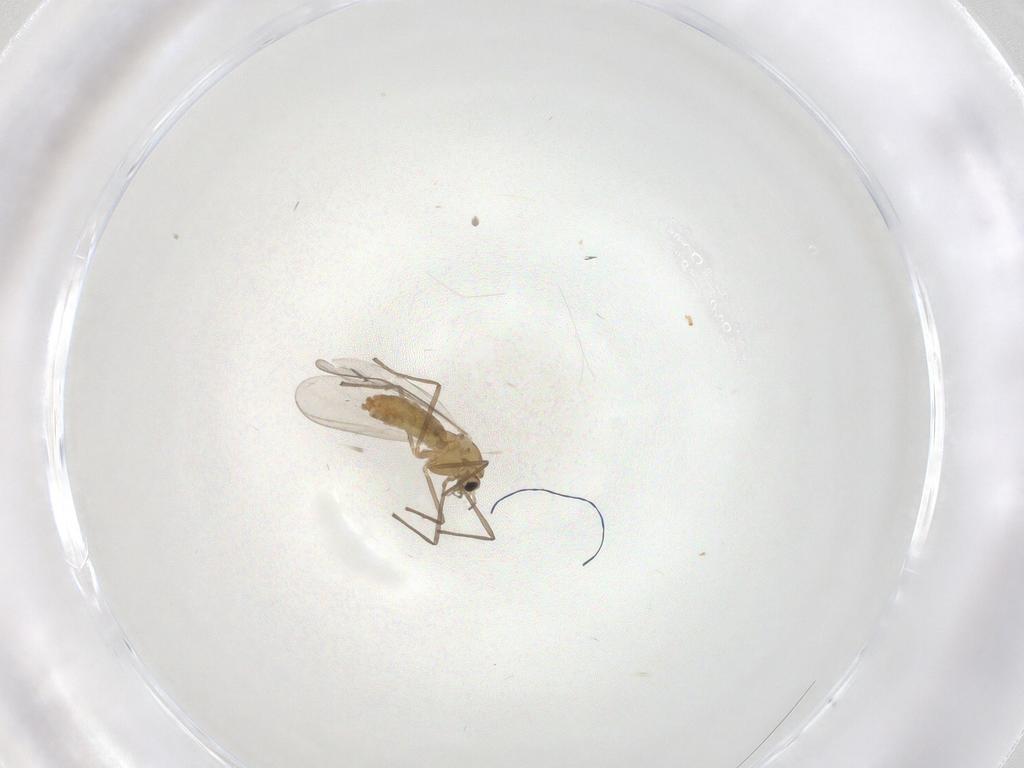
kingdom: Animalia
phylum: Arthropoda
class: Insecta
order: Diptera
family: Chironomidae
